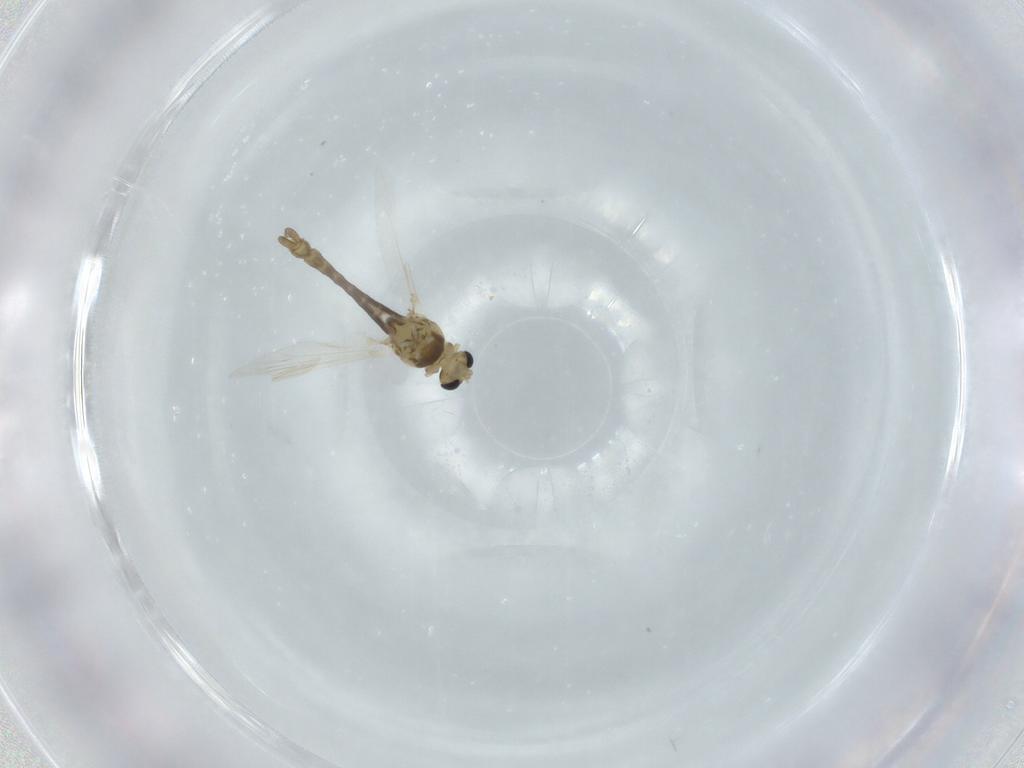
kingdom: Animalia
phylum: Arthropoda
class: Insecta
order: Diptera
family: Chironomidae
